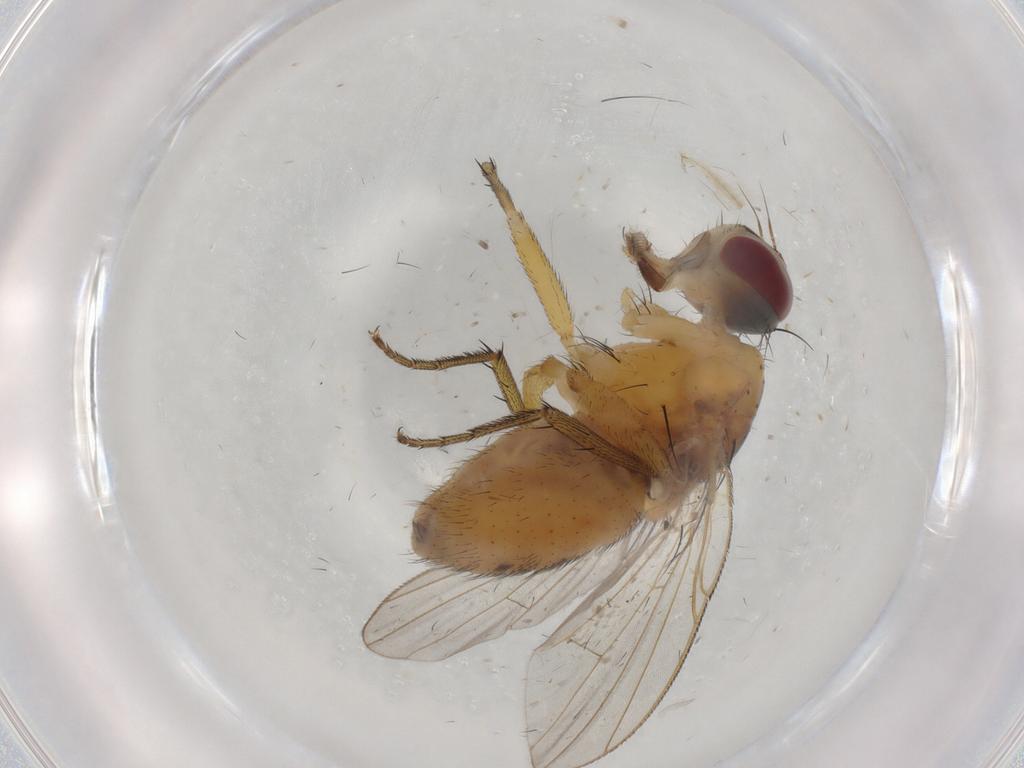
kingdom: Animalia
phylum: Arthropoda
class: Insecta
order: Diptera
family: Muscidae
